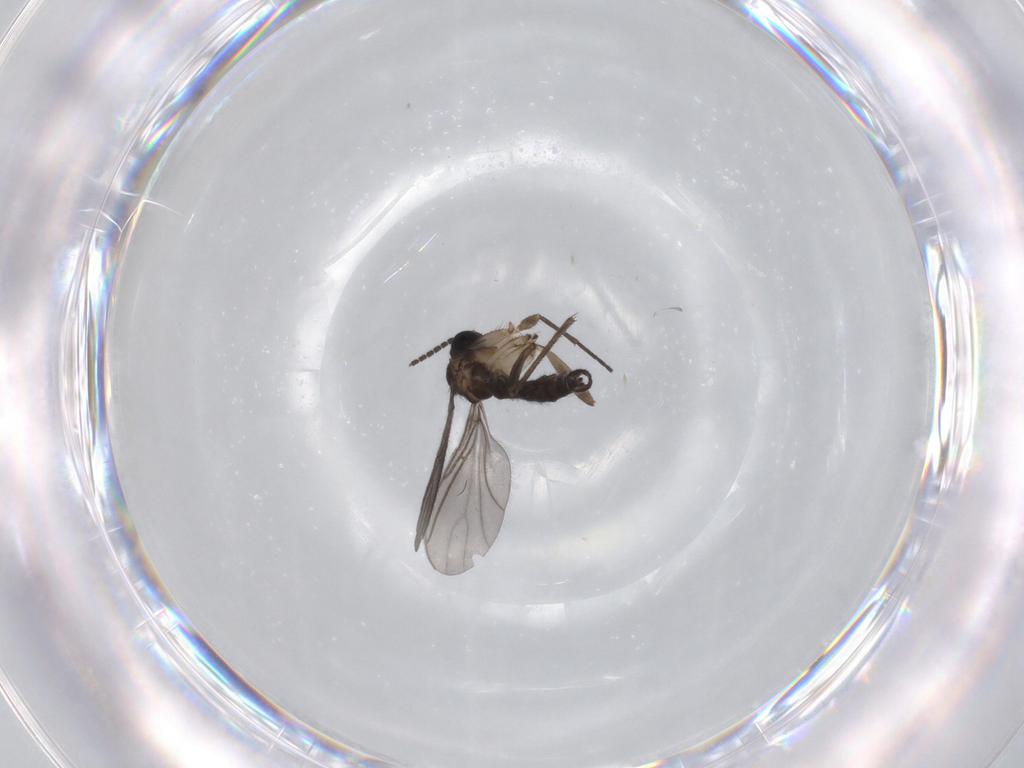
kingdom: Animalia
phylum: Arthropoda
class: Insecta
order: Diptera
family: Sciaridae
